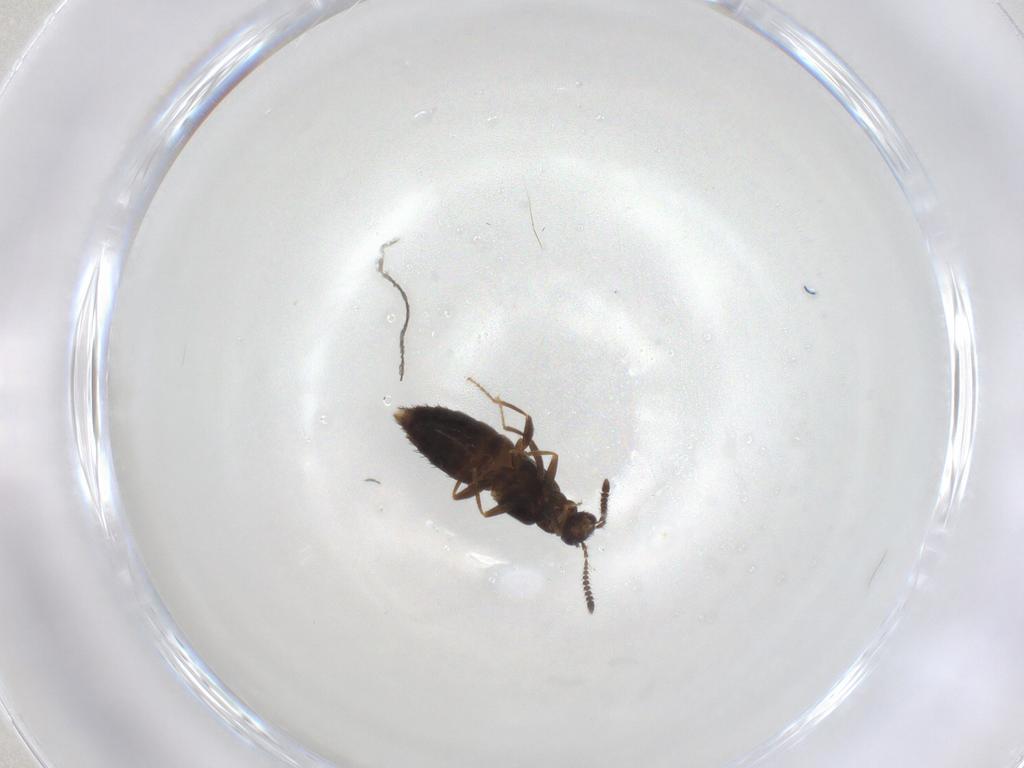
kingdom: Animalia
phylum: Arthropoda
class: Insecta
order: Coleoptera
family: Staphylinidae
